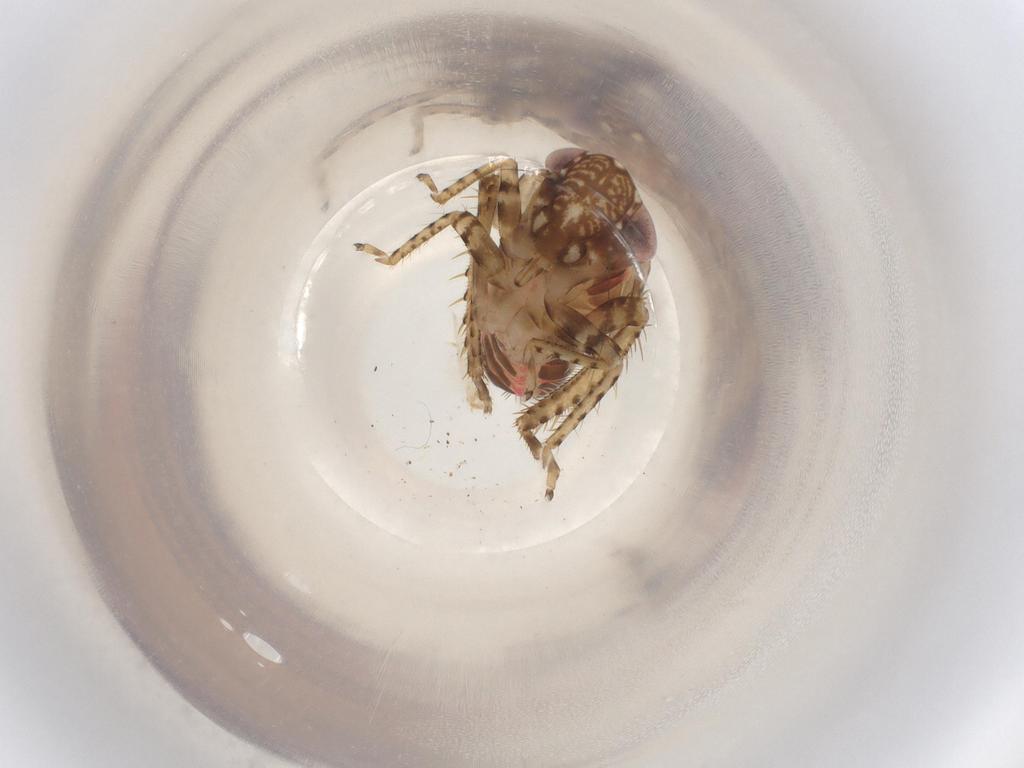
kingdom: Animalia
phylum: Arthropoda
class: Insecta
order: Hemiptera
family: Cicadellidae
